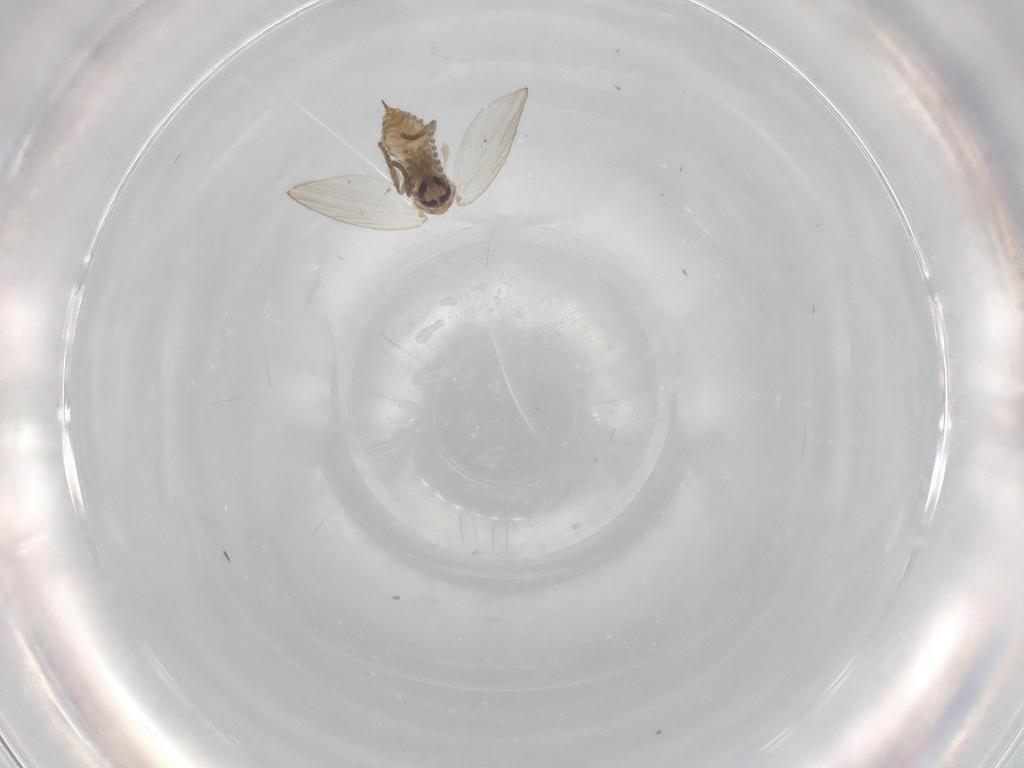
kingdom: Animalia
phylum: Arthropoda
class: Insecta
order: Diptera
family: Psychodidae
